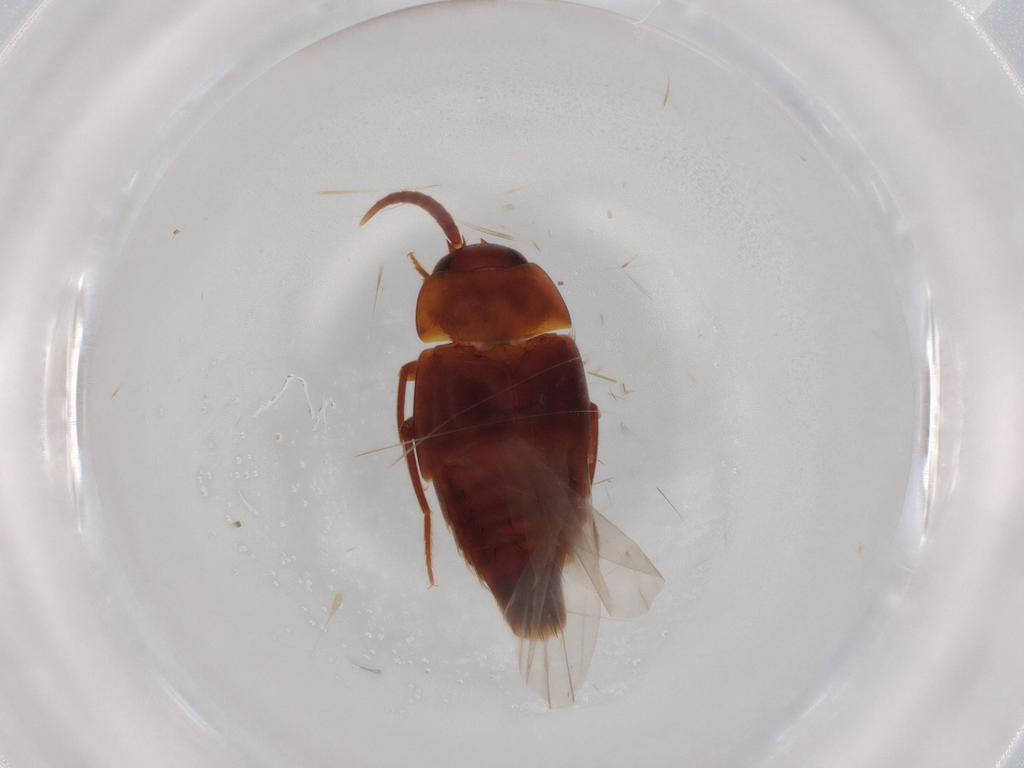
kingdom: Animalia
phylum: Arthropoda
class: Insecta
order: Coleoptera
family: Staphylinidae
